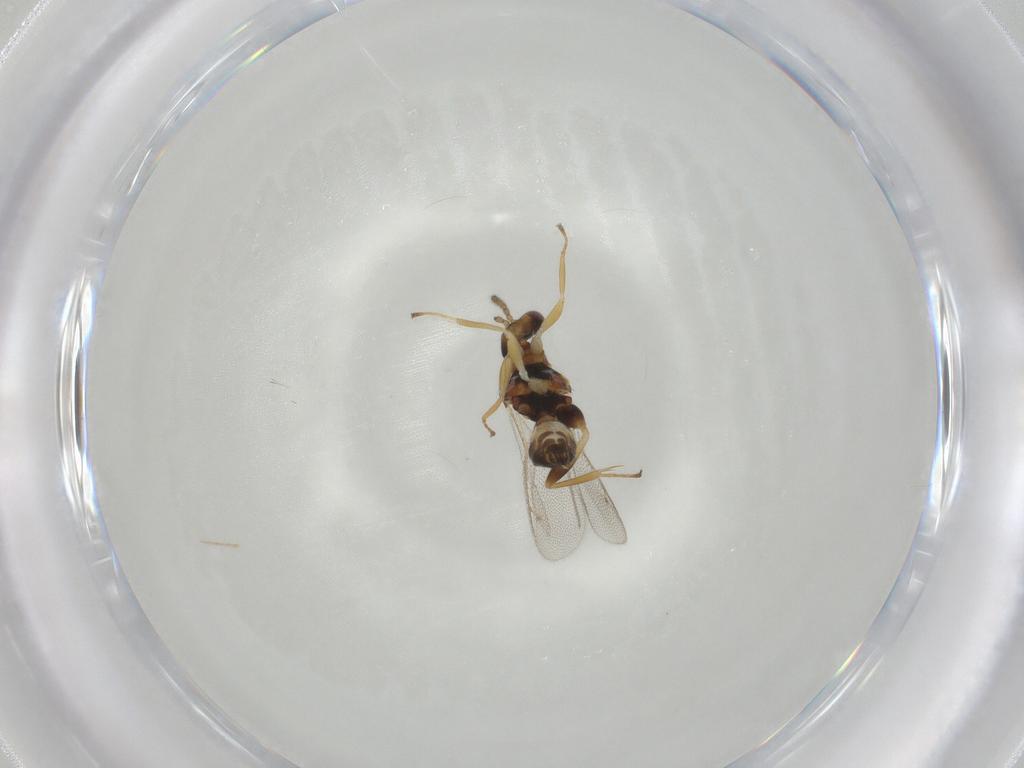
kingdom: Animalia
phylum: Arthropoda
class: Insecta
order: Hymenoptera
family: Eulophidae
